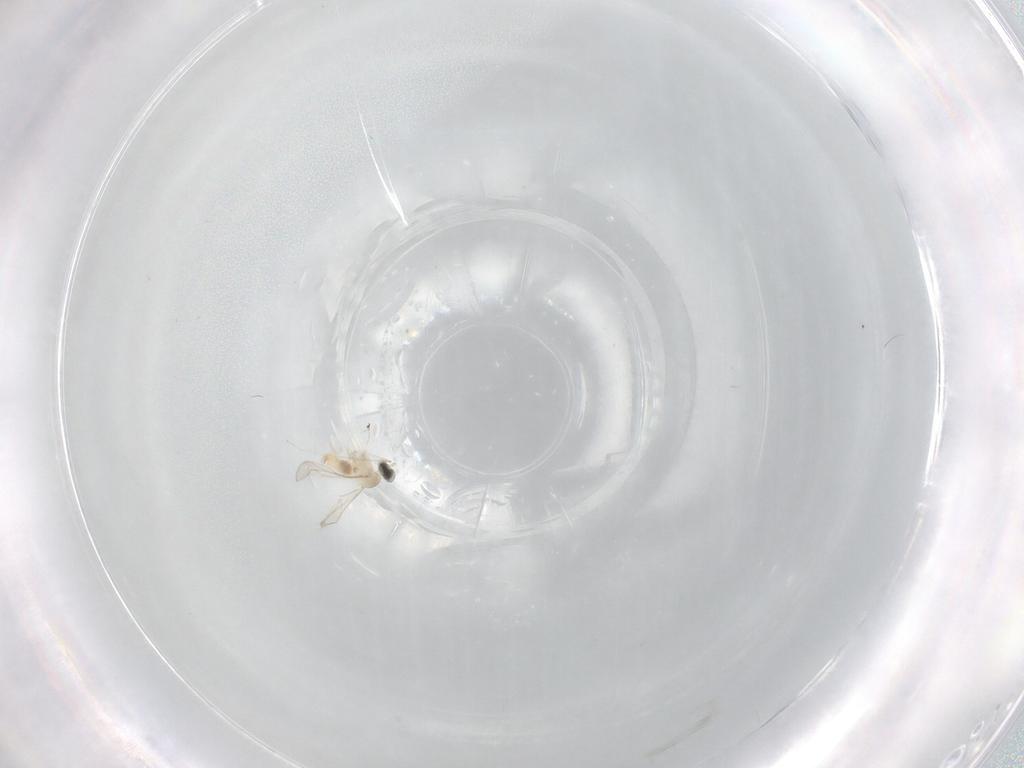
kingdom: Animalia
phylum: Arthropoda
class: Insecta
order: Diptera
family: Cecidomyiidae
